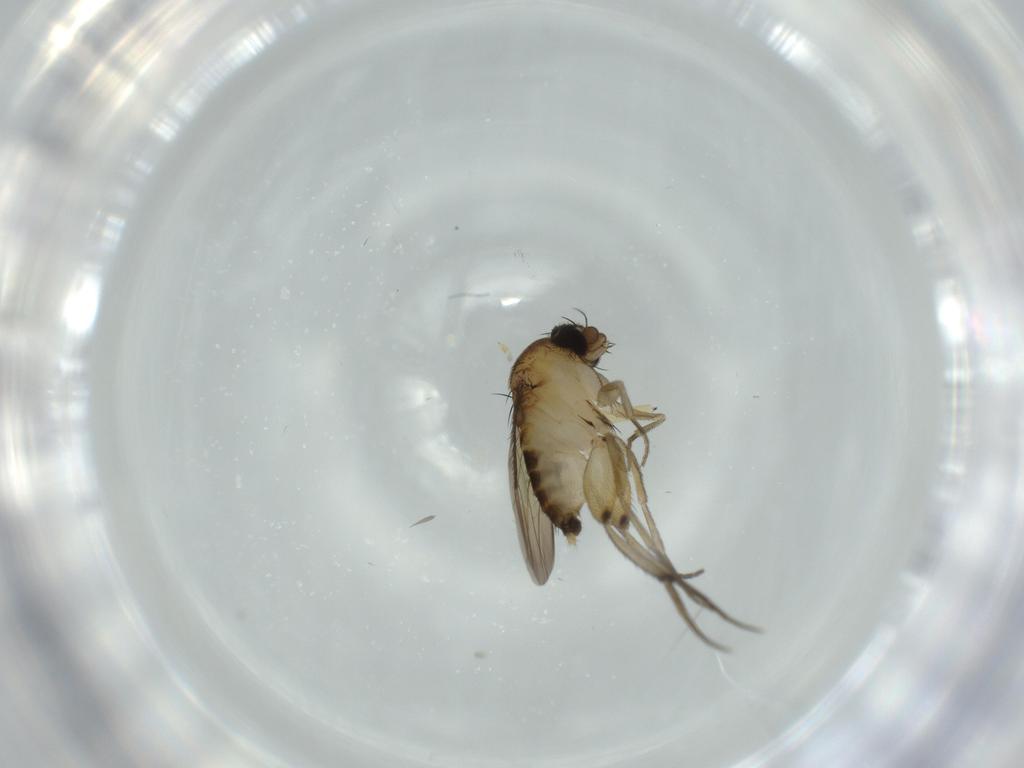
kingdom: Animalia
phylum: Arthropoda
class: Insecta
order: Diptera
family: Phoridae
